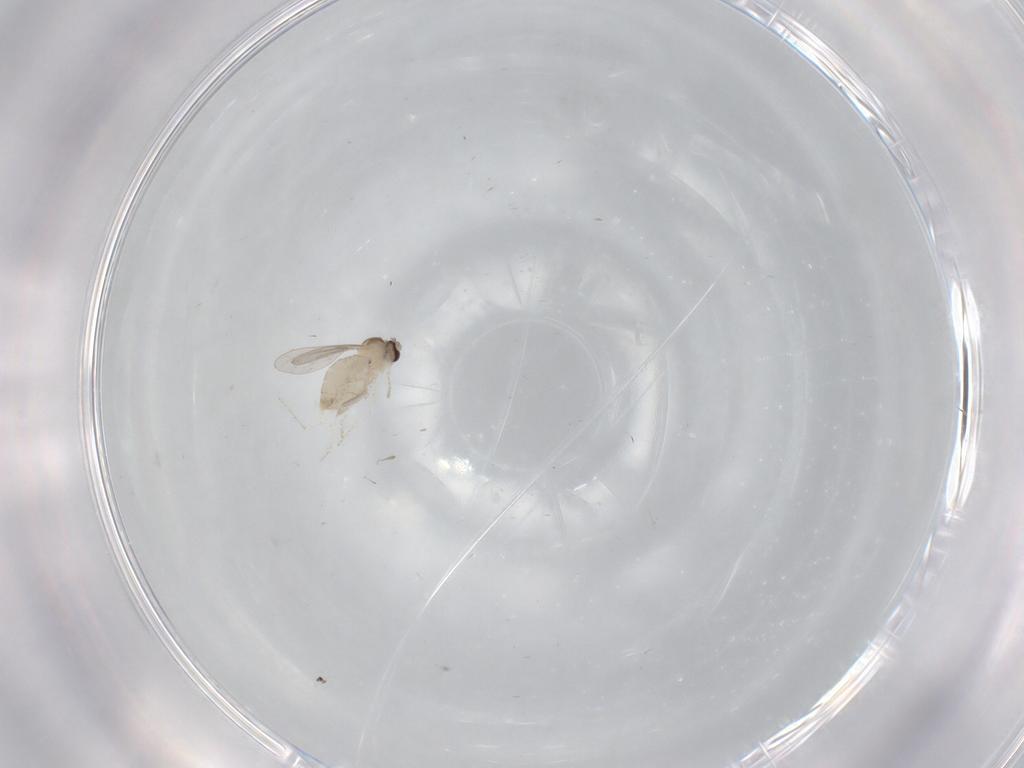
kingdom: Animalia
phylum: Arthropoda
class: Insecta
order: Diptera
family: Cecidomyiidae
